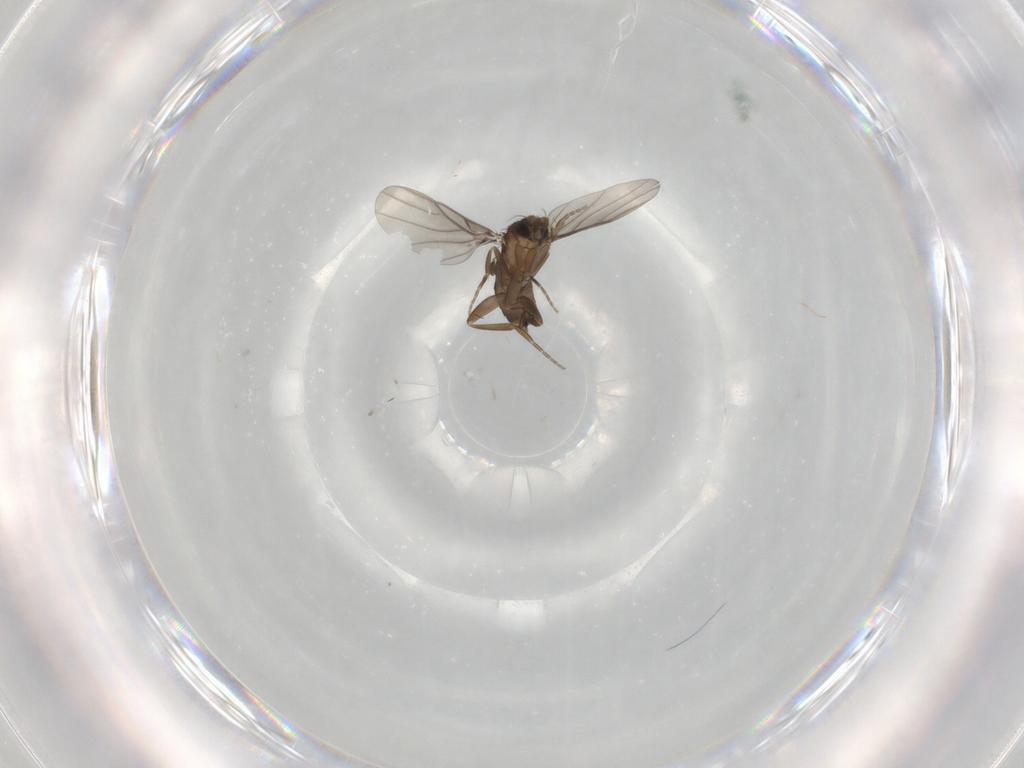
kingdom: Animalia
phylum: Arthropoda
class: Insecta
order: Diptera
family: Phoridae
